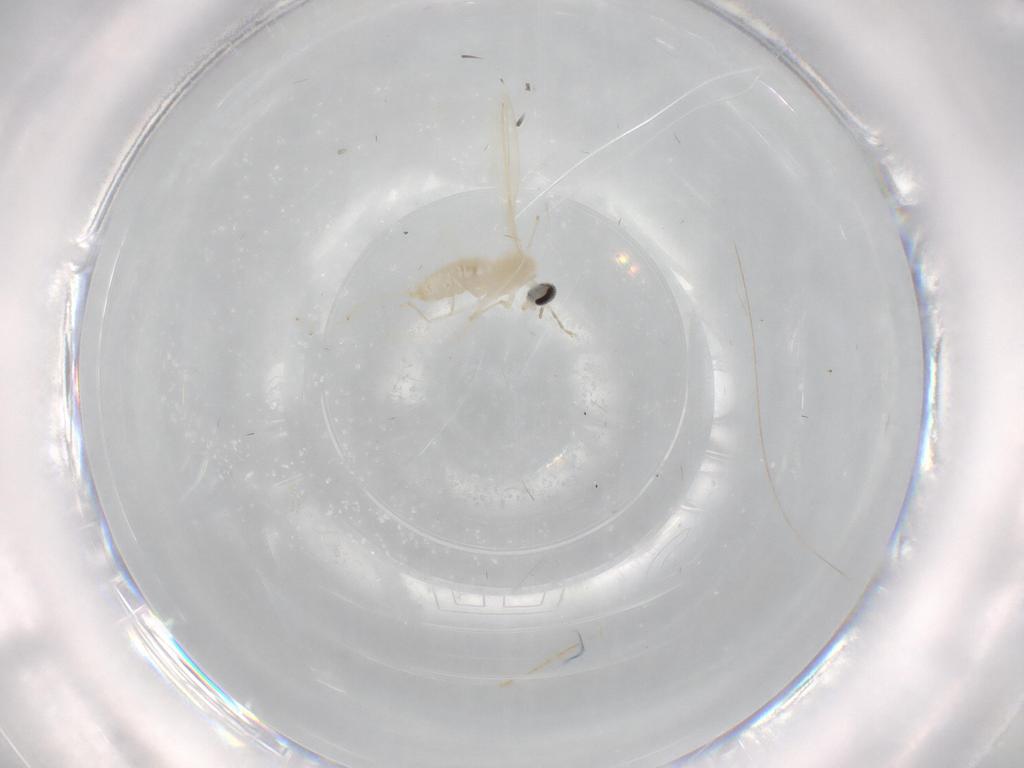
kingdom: Animalia
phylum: Arthropoda
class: Insecta
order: Diptera
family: Cecidomyiidae
